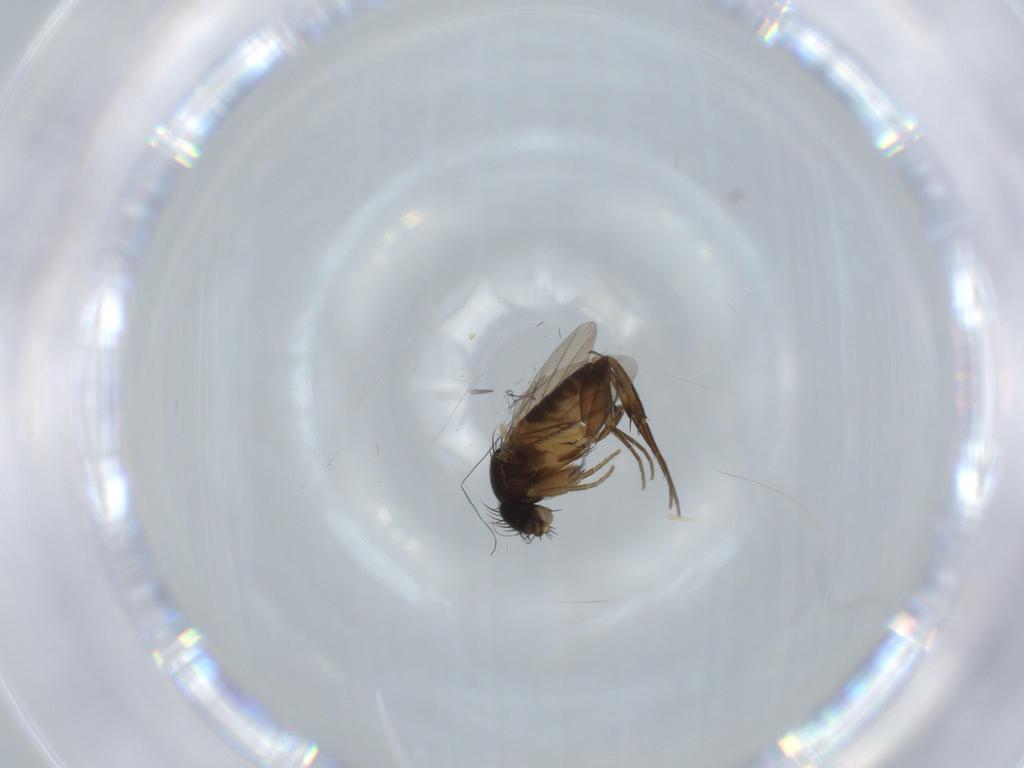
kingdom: Animalia
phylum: Arthropoda
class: Insecta
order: Diptera
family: Phoridae
